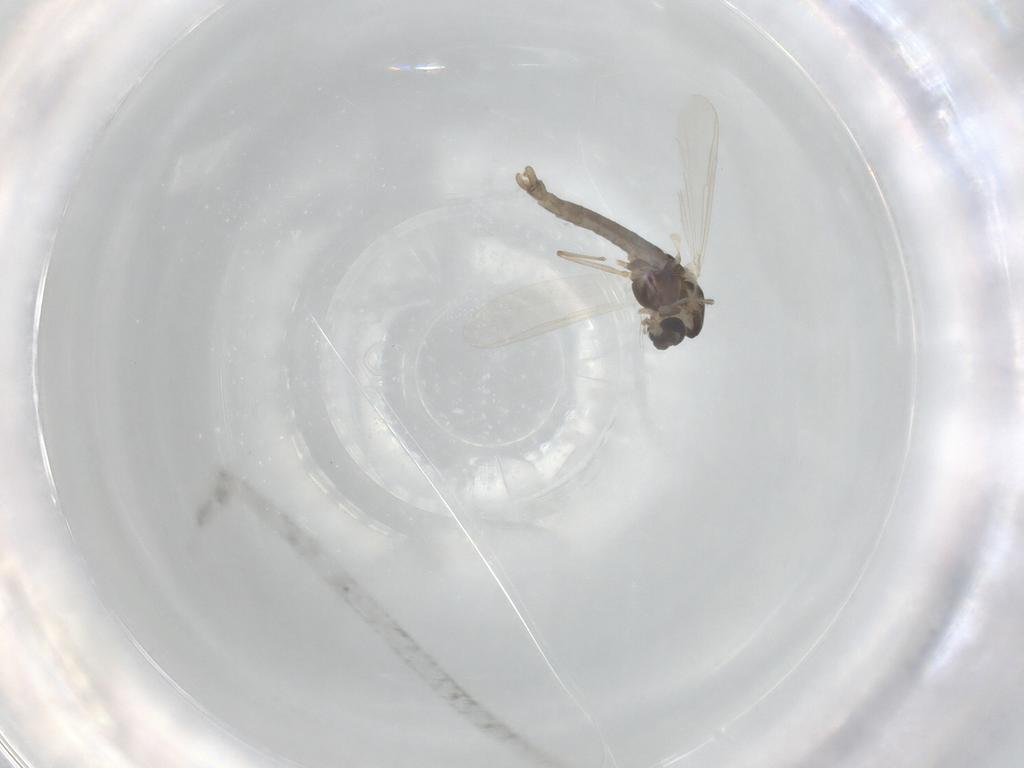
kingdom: Animalia
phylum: Arthropoda
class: Insecta
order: Diptera
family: Chironomidae
